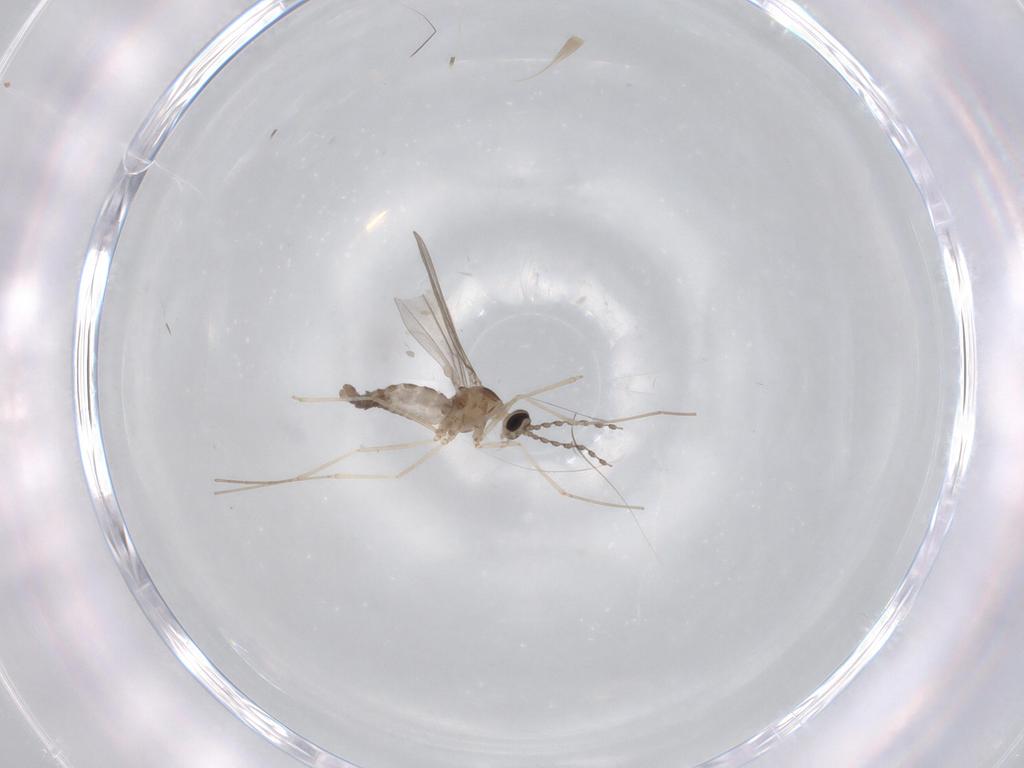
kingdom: Animalia
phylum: Arthropoda
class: Insecta
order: Diptera
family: Cecidomyiidae
